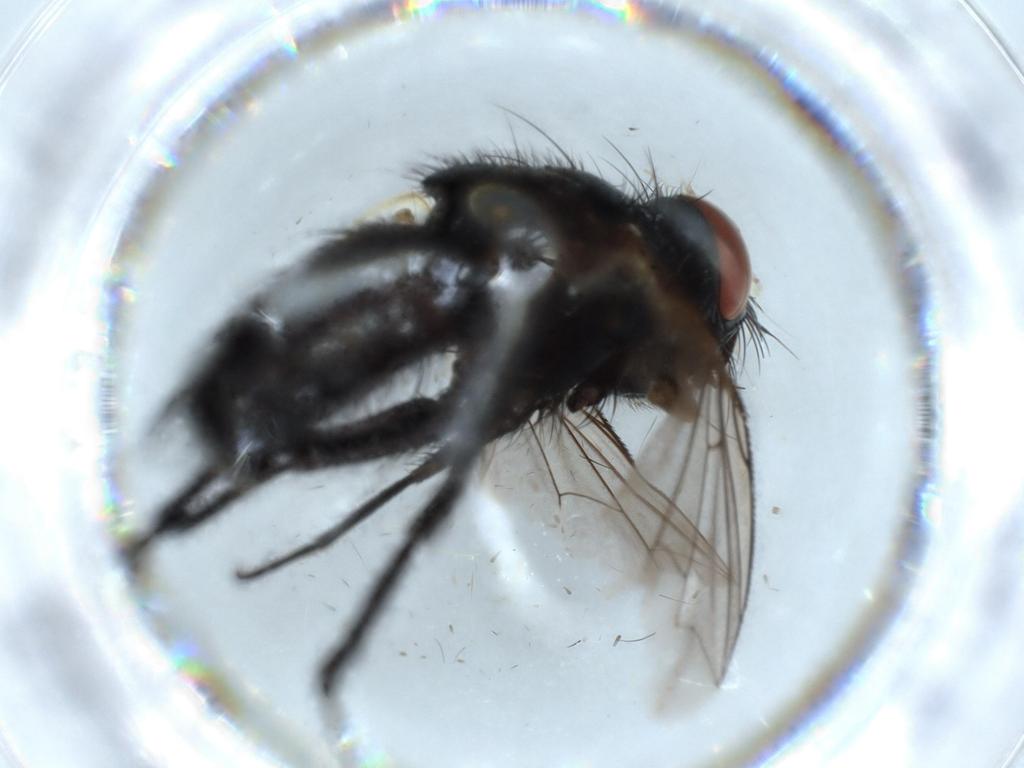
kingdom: Animalia
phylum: Arthropoda
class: Insecta
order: Diptera
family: Sarcophagidae
